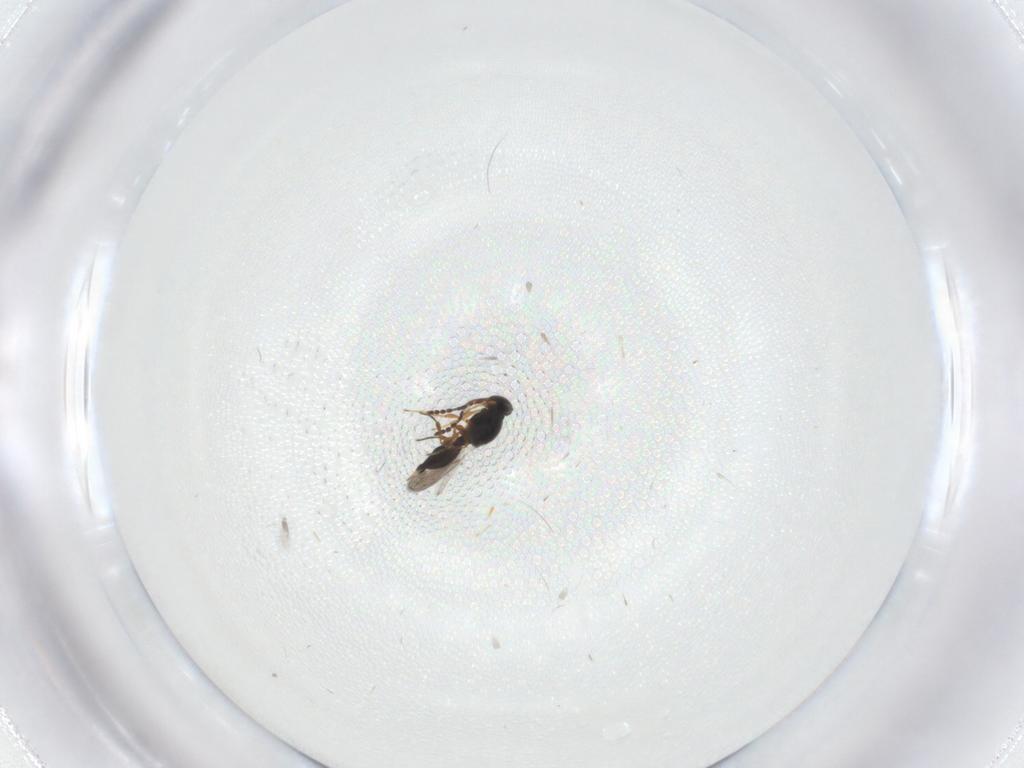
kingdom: Animalia
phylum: Arthropoda
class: Insecta
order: Hymenoptera
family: Platygastridae
